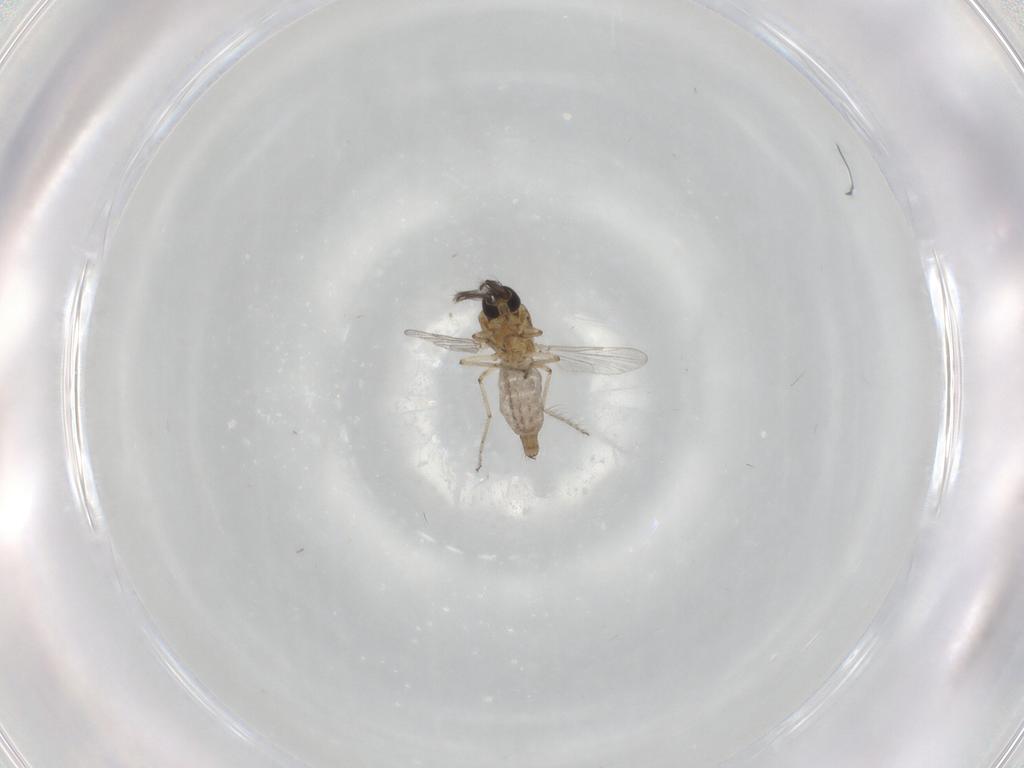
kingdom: Animalia
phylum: Arthropoda
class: Insecta
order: Diptera
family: Ceratopogonidae
